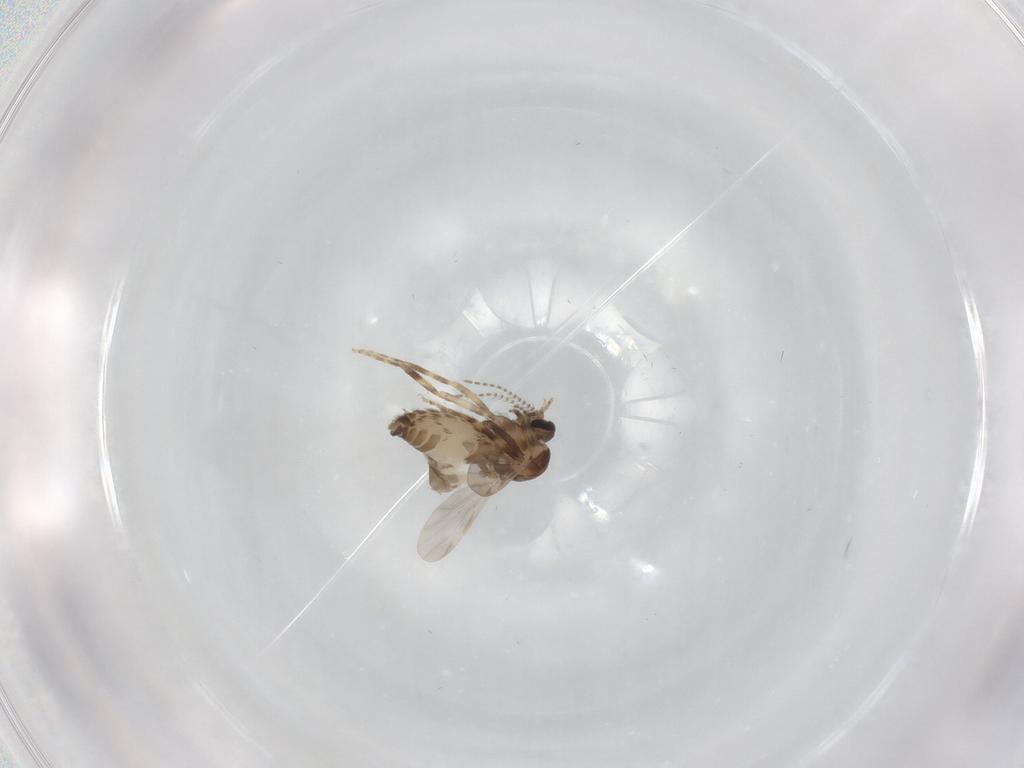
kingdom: Animalia
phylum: Arthropoda
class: Insecta
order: Diptera
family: Ceratopogonidae
